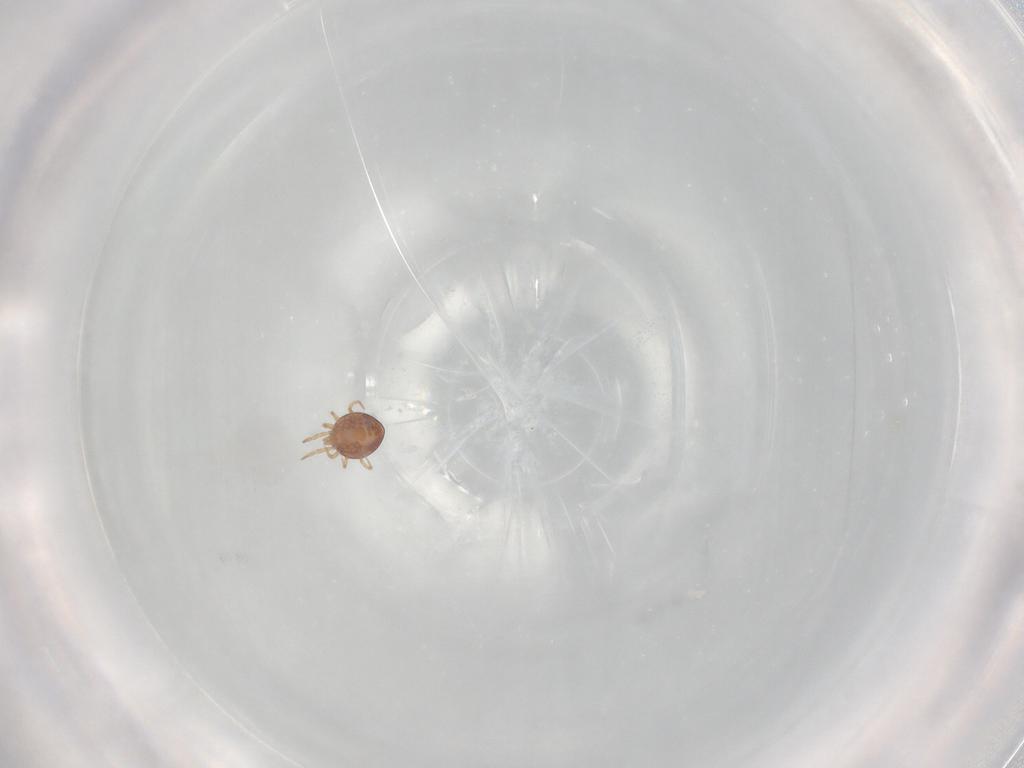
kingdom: Animalia
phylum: Arthropoda
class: Arachnida
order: Mesostigmata
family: Phytoseiidae
